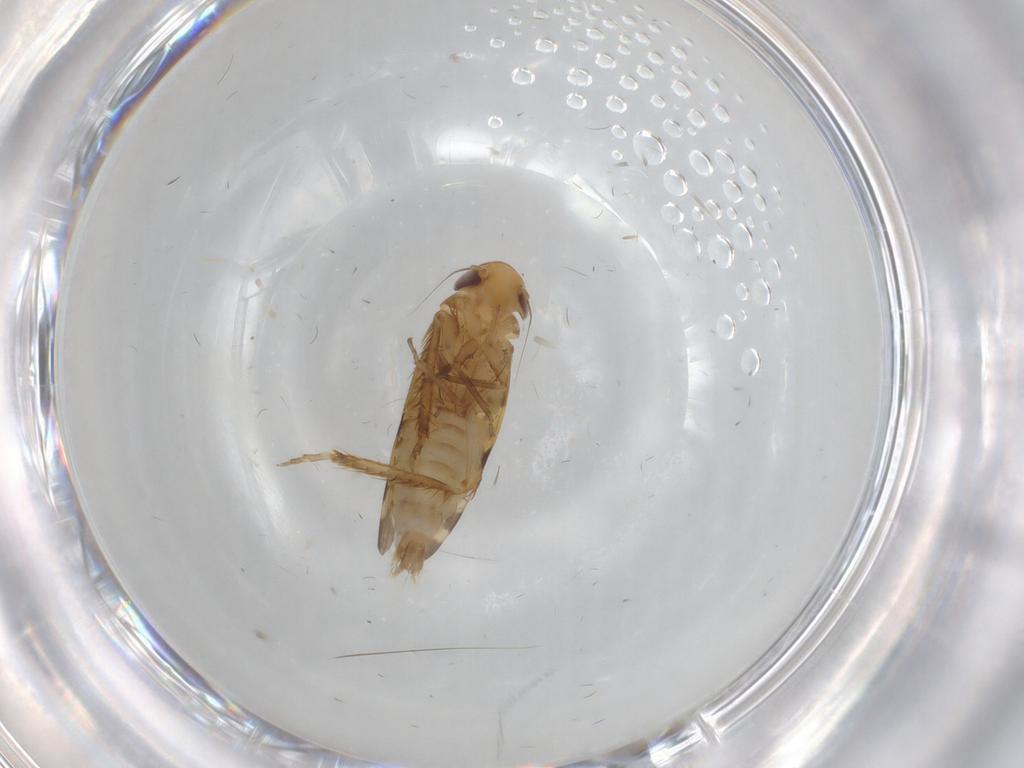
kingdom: Animalia
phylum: Arthropoda
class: Insecta
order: Hemiptera
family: Cicadellidae
